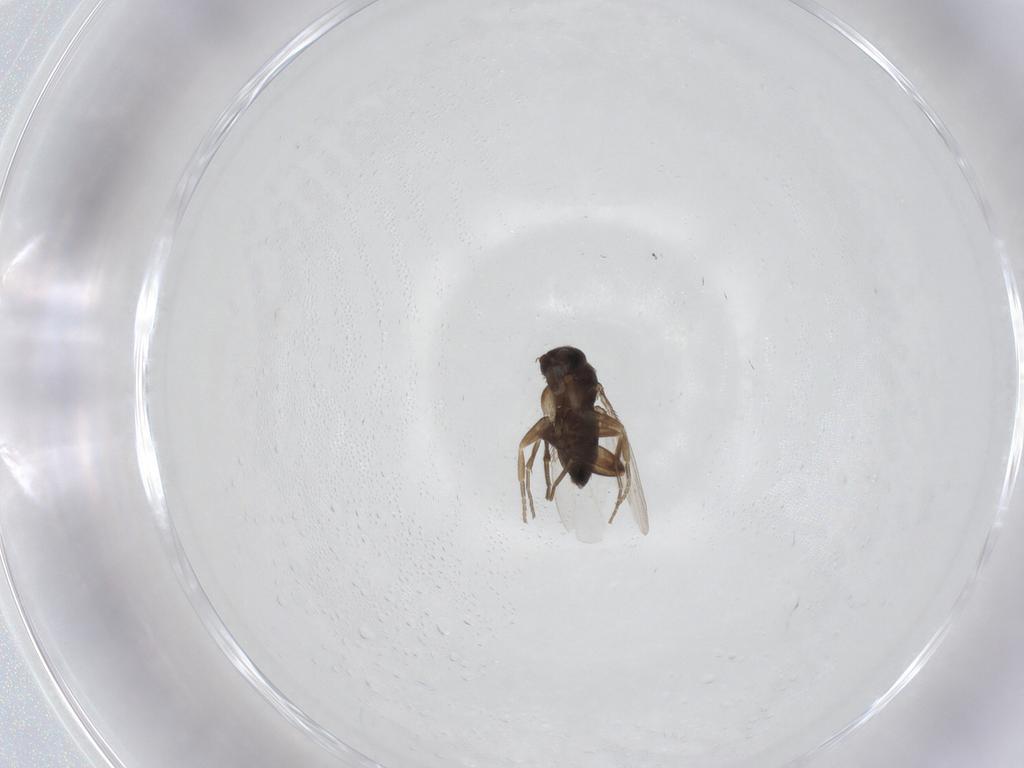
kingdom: Animalia
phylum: Arthropoda
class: Insecta
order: Diptera
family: Phoridae
